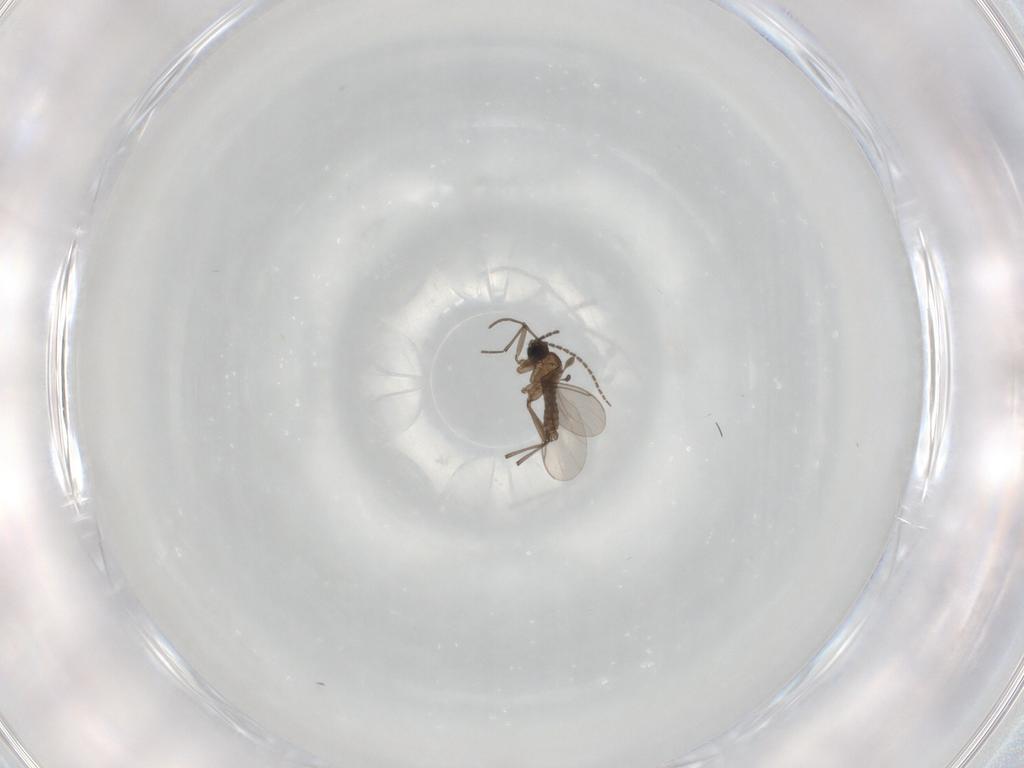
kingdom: Animalia
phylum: Arthropoda
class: Insecta
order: Diptera
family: Sciaridae
